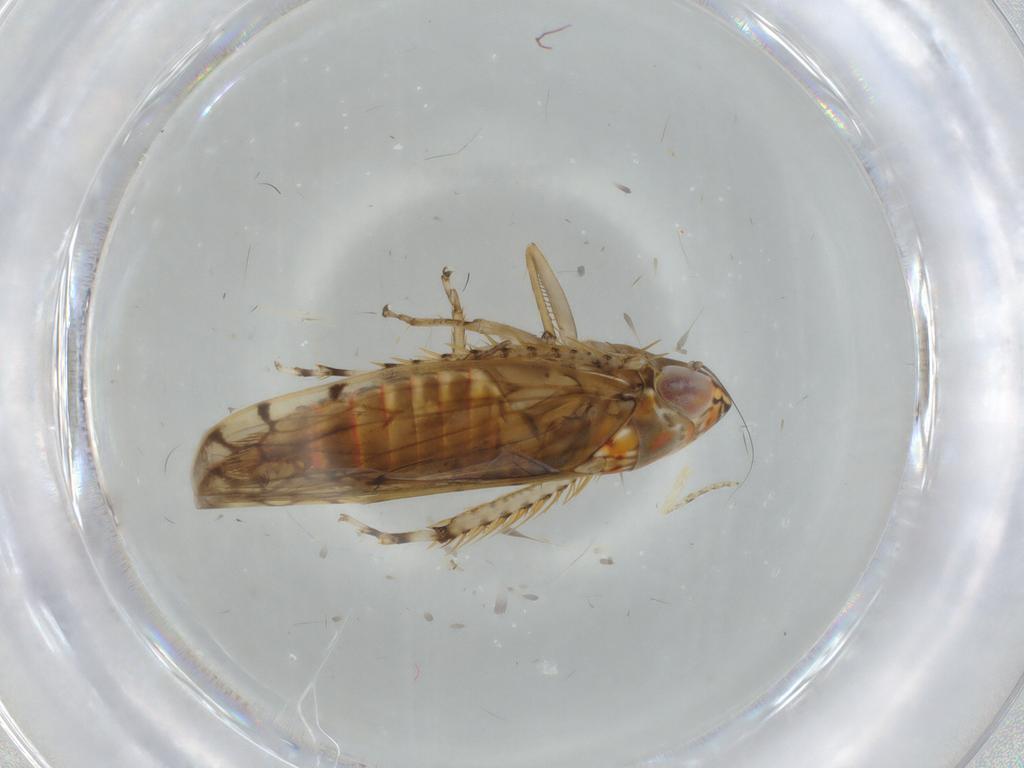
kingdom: Animalia
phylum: Arthropoda
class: Insecta
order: Hemiptera
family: Cicadellidae
